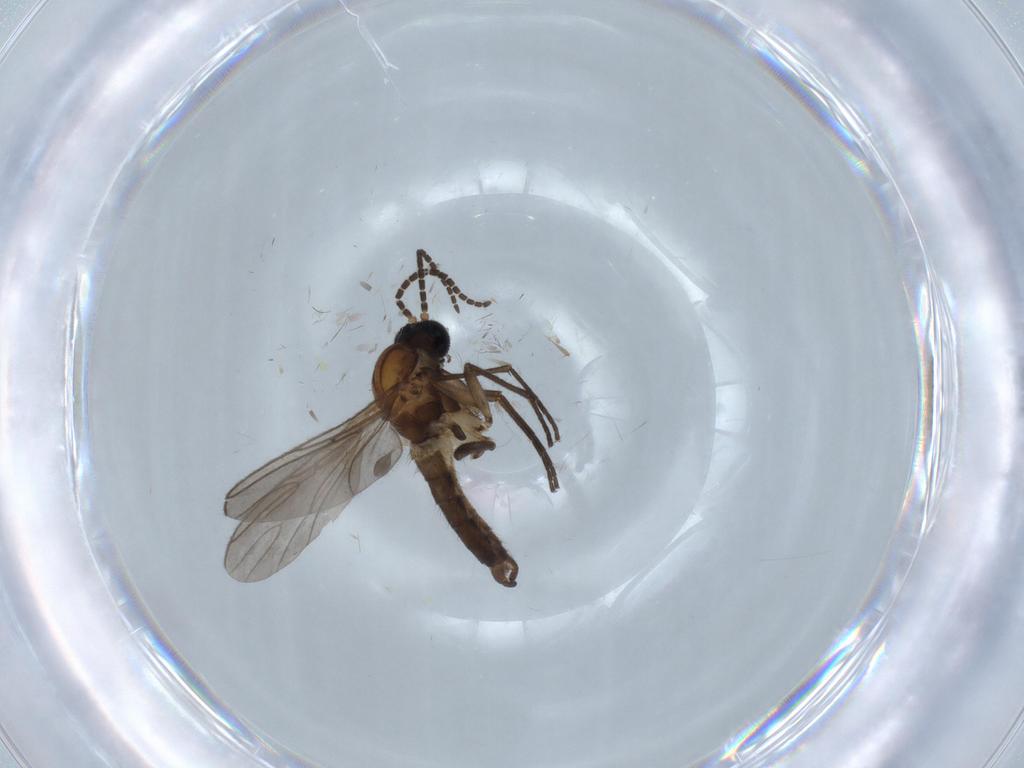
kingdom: Animalia
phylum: Arthropoda
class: Insecta
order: Diptera
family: Sciaridae
